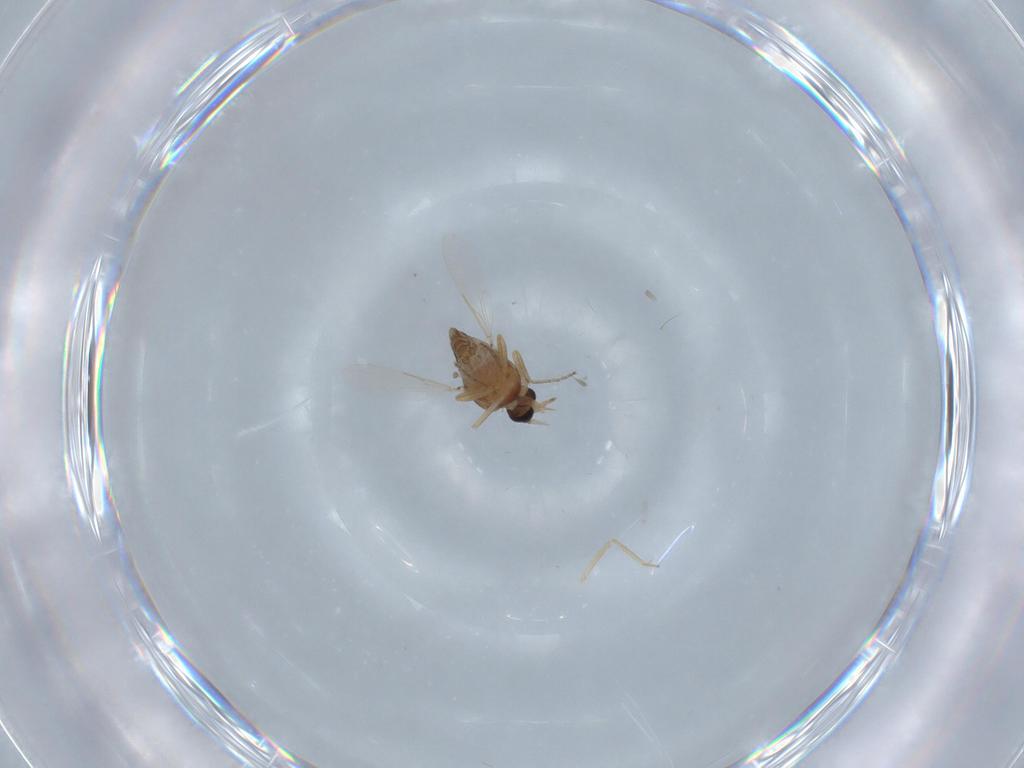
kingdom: Animalia
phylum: Arthropoda
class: Insecta
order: Diptera
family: Ceratopogonidae
